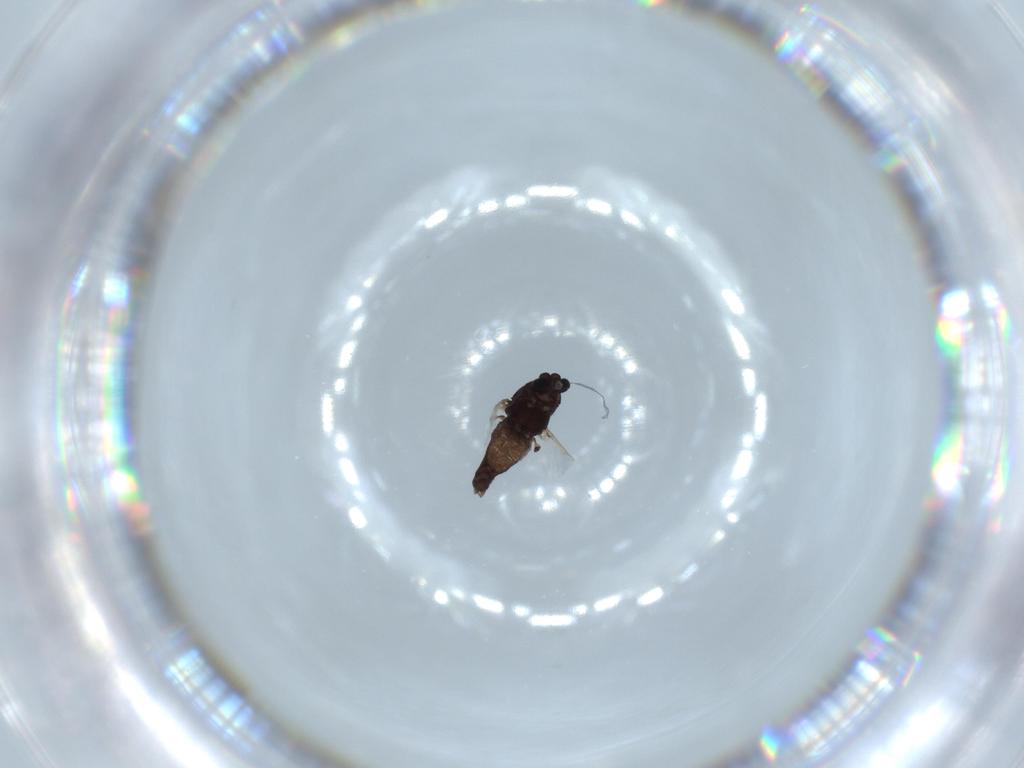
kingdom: Animalia
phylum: Arthropoda
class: Insecta
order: Diptera
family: Chironomidae
